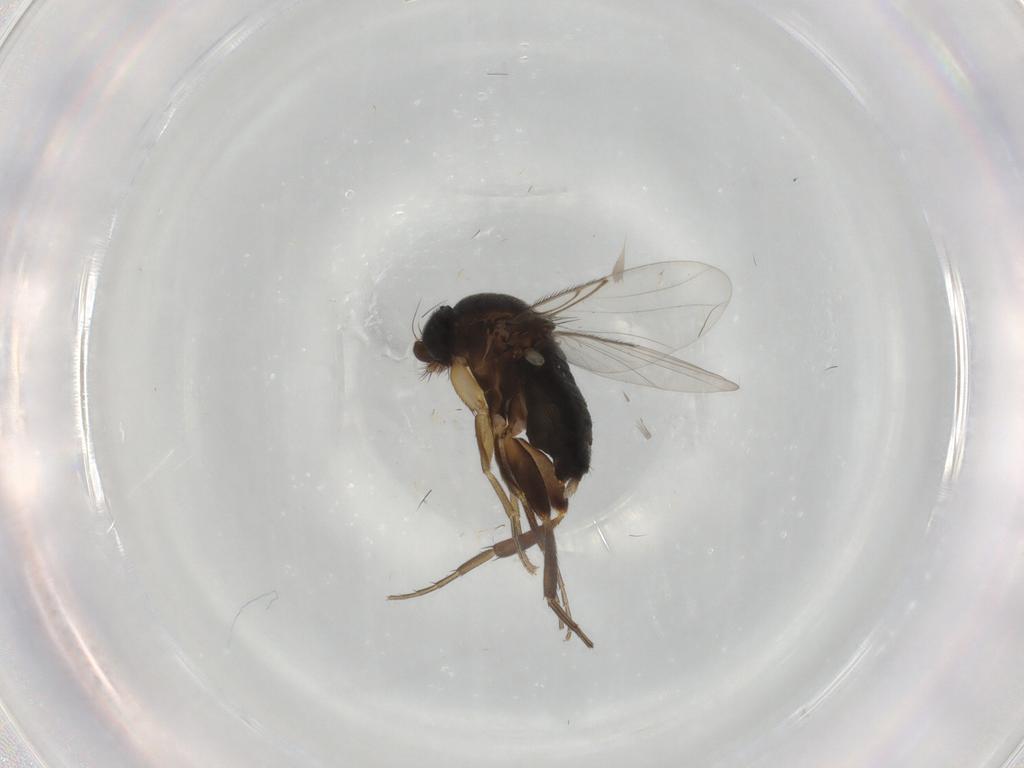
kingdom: Animalia
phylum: Arthropoda
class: Insecta
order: Diptera
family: Phoridae
